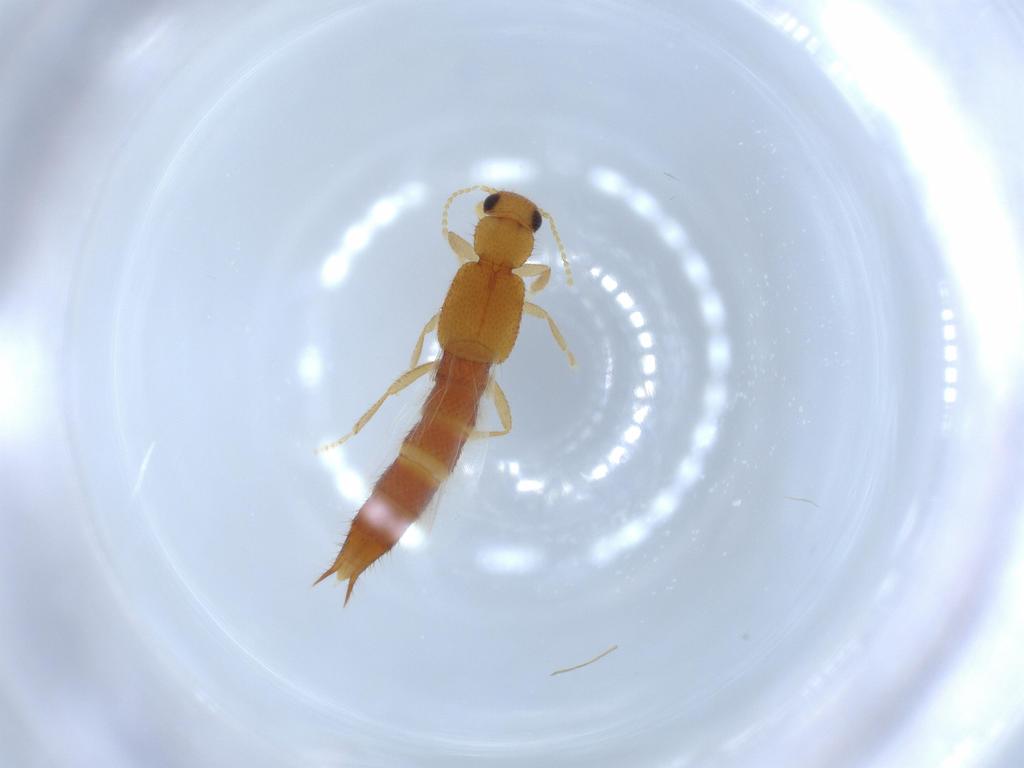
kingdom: Animalia
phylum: Arthropoda
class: Insecta
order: Coleoptera
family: Staphylinidae
